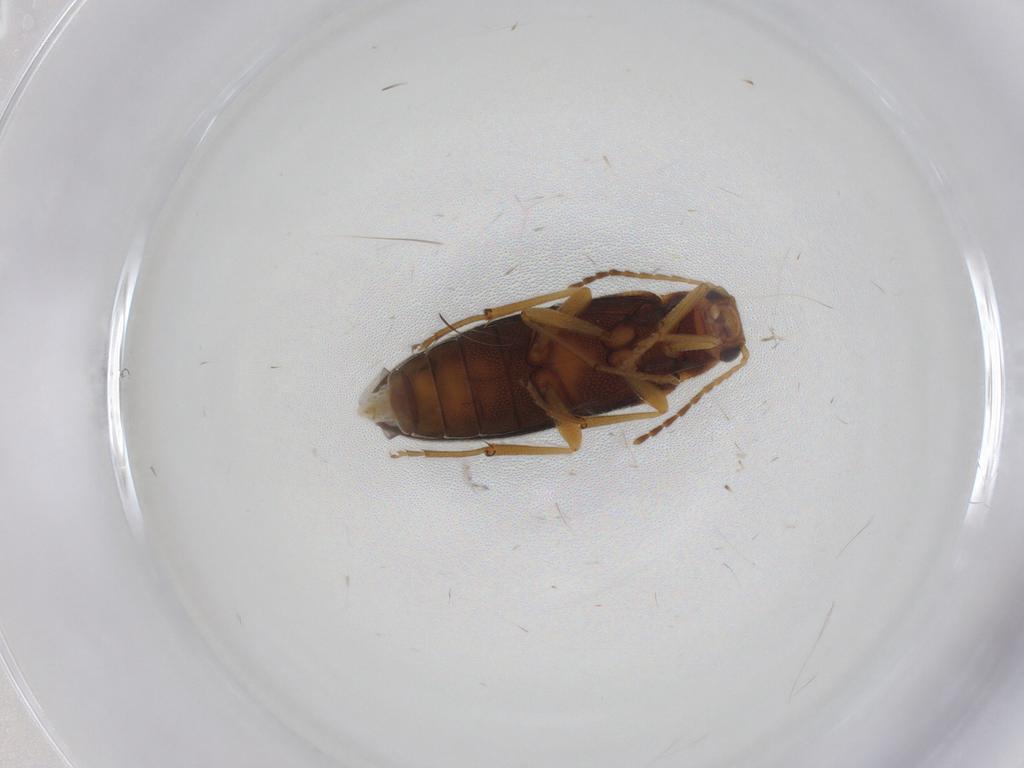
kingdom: Animalia
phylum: Arthropoda
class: Insecta
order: Coleoptera
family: Melandryidae
